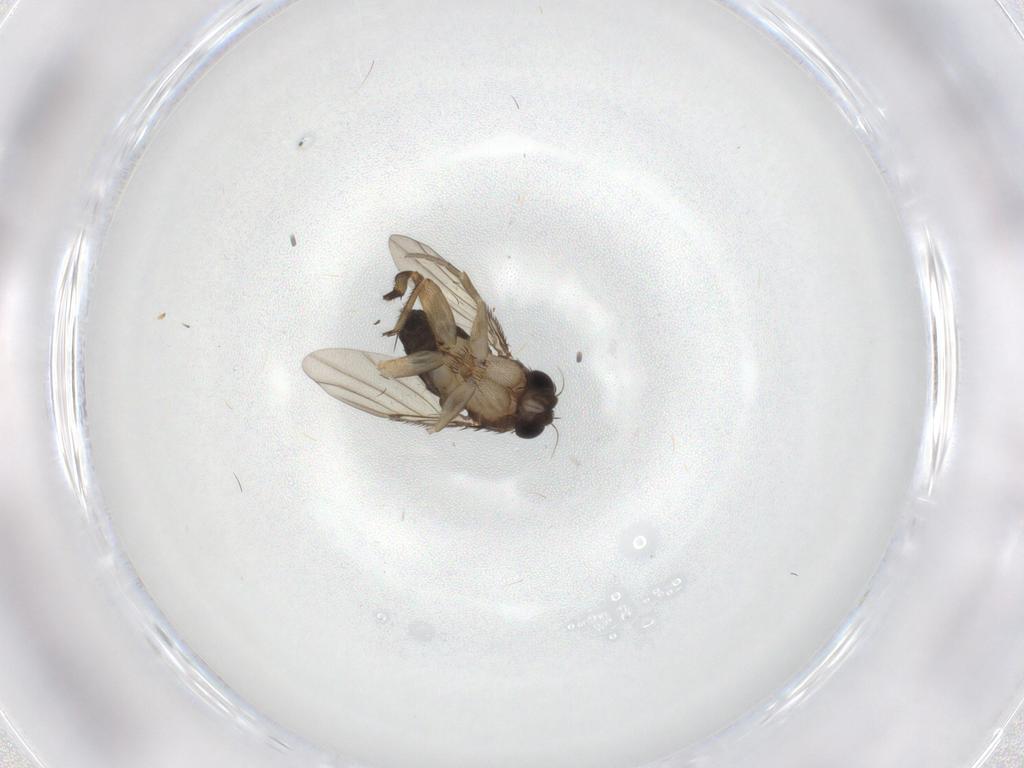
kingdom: Animalia
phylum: Arthropoda
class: Insecta
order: Diptera
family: Phoridae
